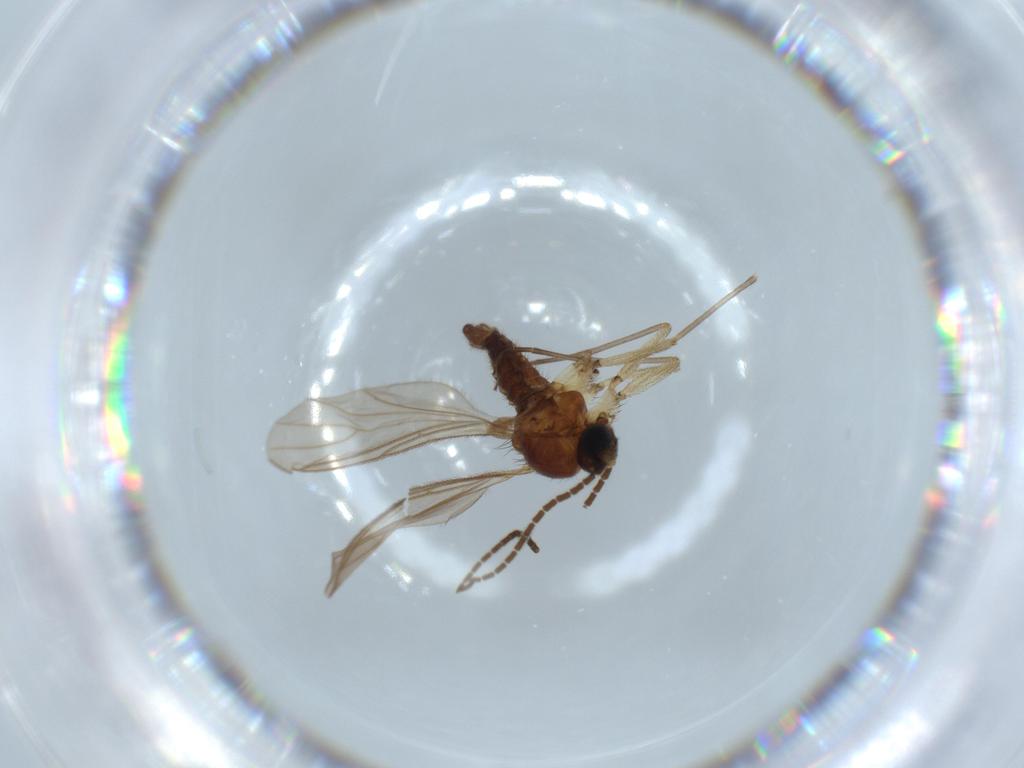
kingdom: Animalia
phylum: Arthropoda
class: Insecta
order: Diptera
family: Sciaridae
